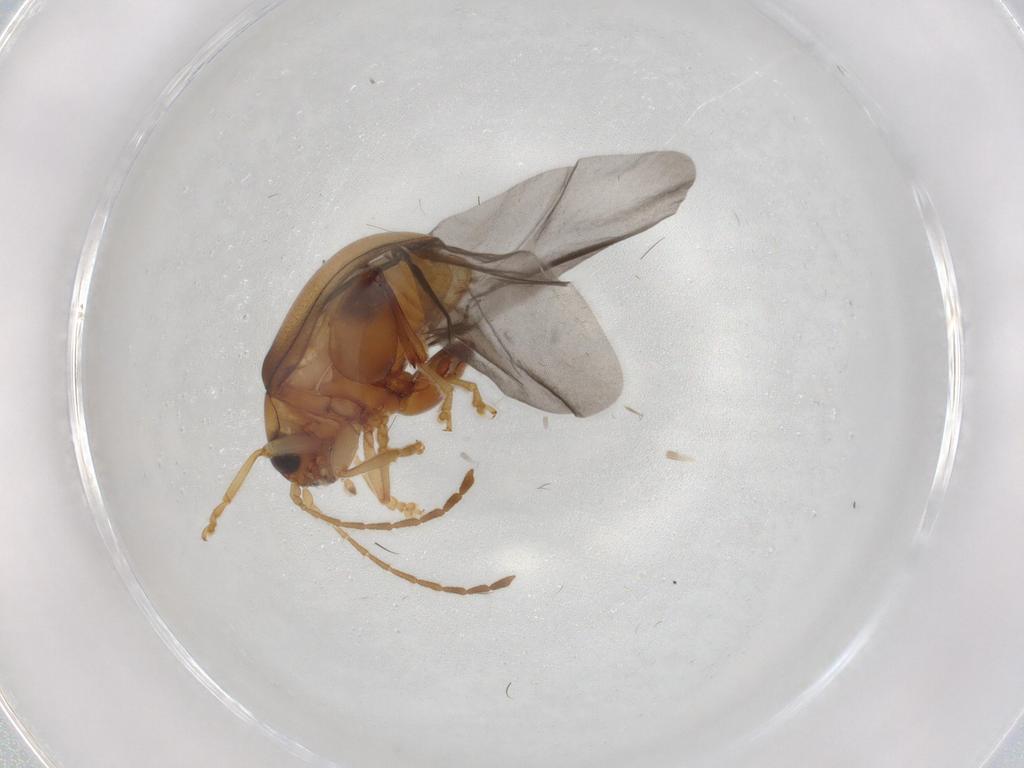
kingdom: Animalia
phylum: Arthropoda
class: Insecta
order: Coleoptera
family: Chrysomelidae
